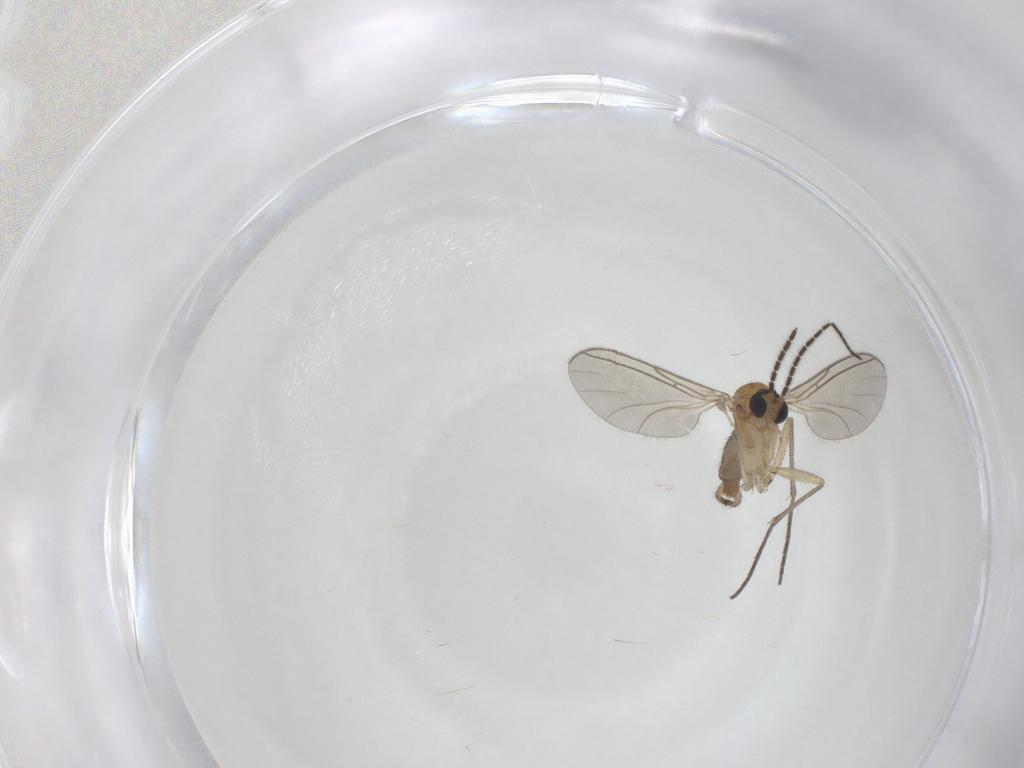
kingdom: Animalia
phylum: Arthropoda
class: Insecta
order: Diptera
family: Sciaridae
